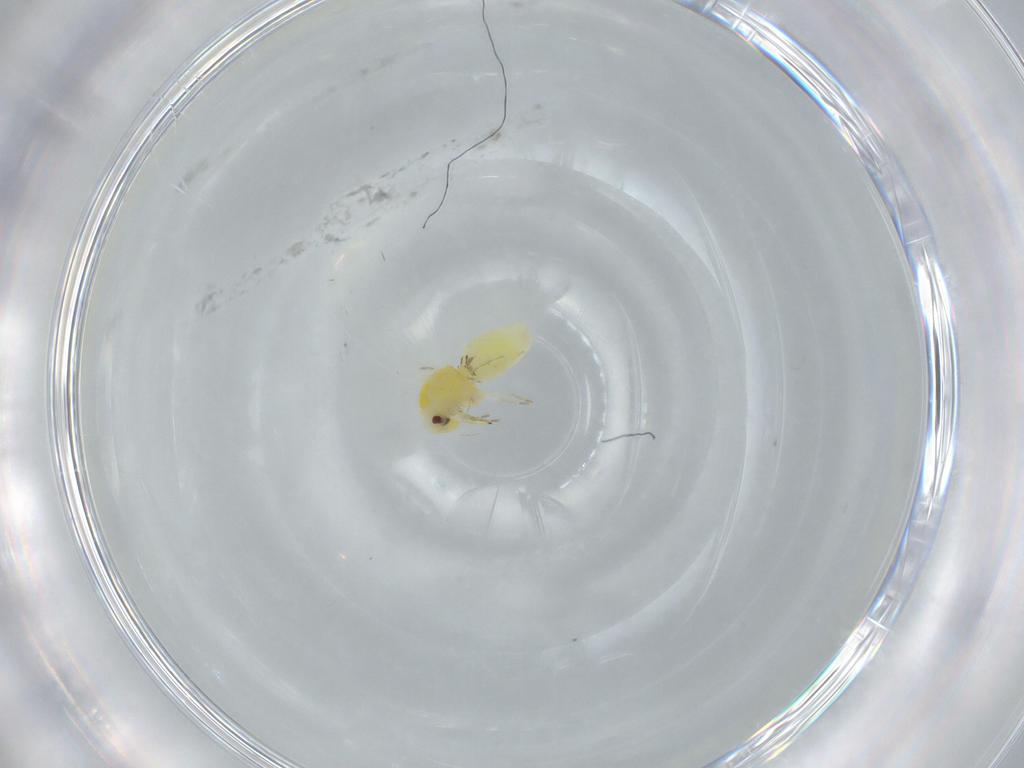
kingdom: Animalia
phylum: Arthropoda
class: Insecta
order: Hemiptera
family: Aleyrodidae
